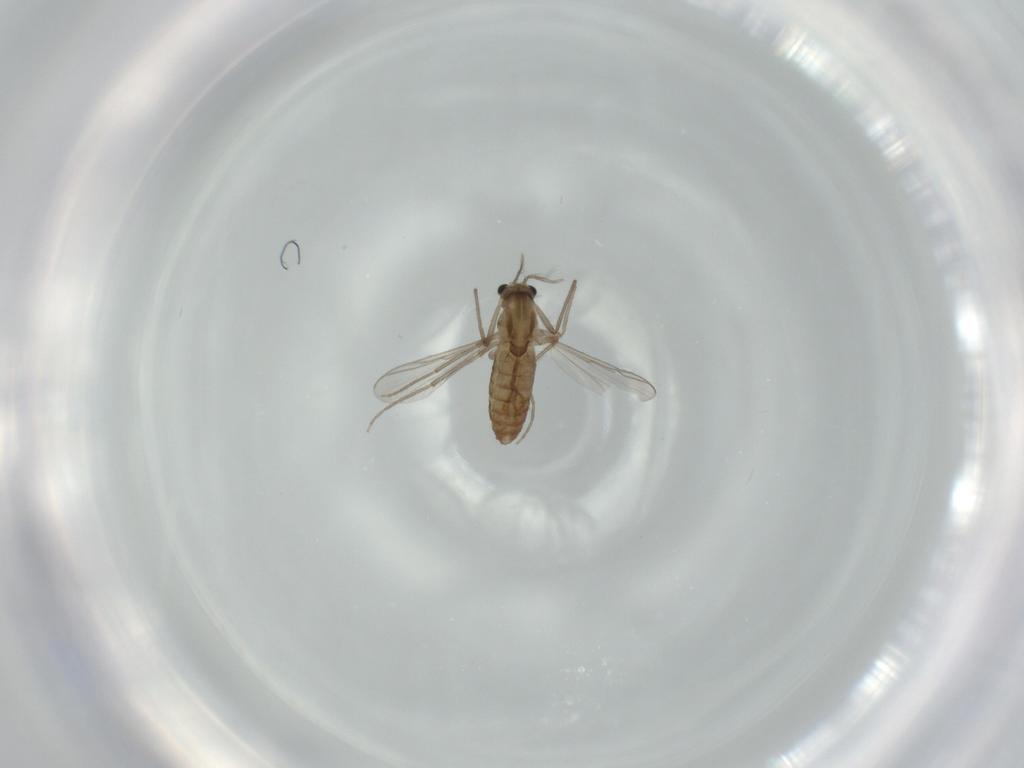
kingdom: Animalia
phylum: Arthropoda
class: Insecta
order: Diptera
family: Chironomidae
